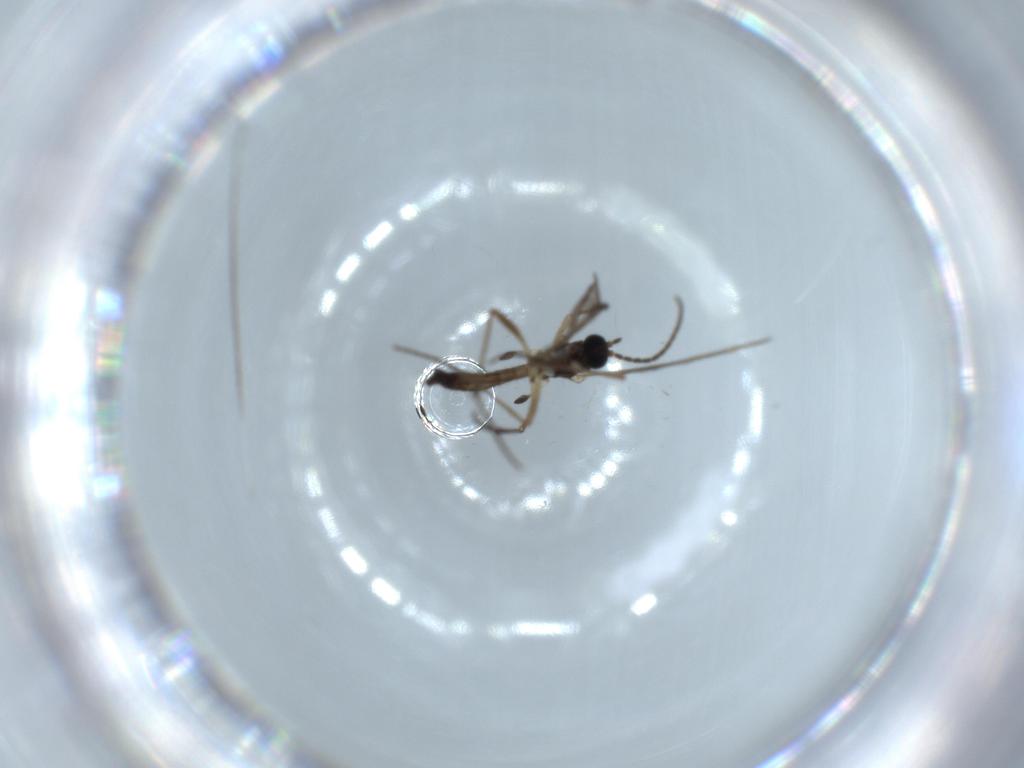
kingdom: Animalia
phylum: Arthropoda
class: Insecta
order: Diptera
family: Sciaridae
